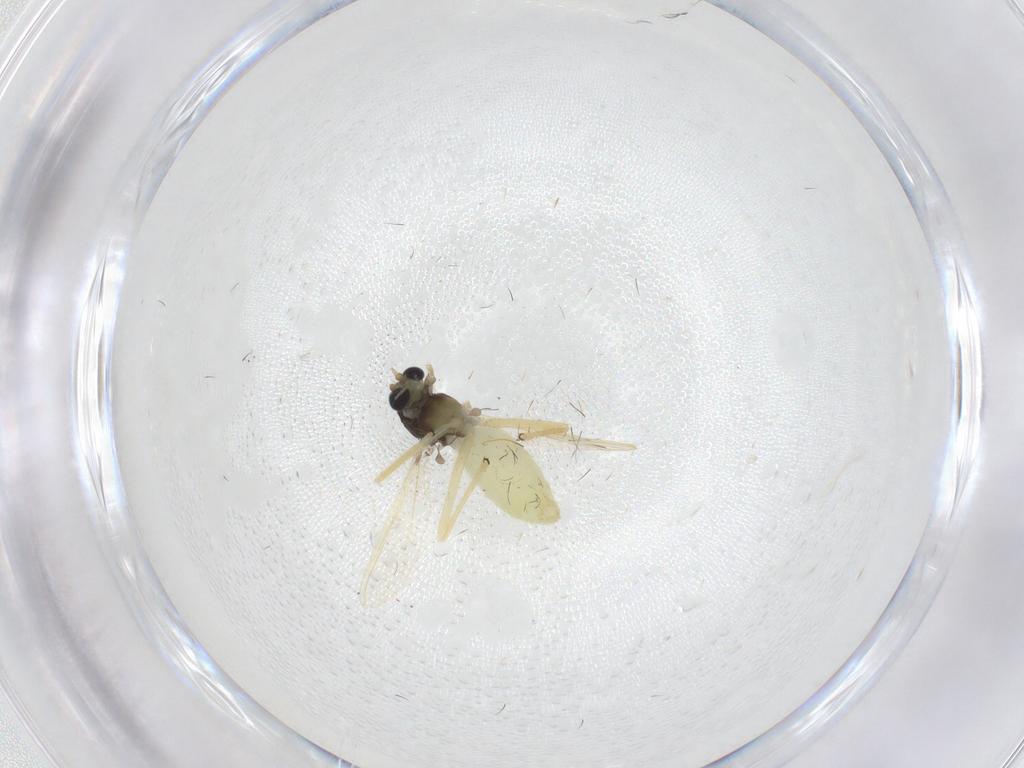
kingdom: Animalia
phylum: Arthropoda
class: Insecta
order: Diptera
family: Chironomidae
